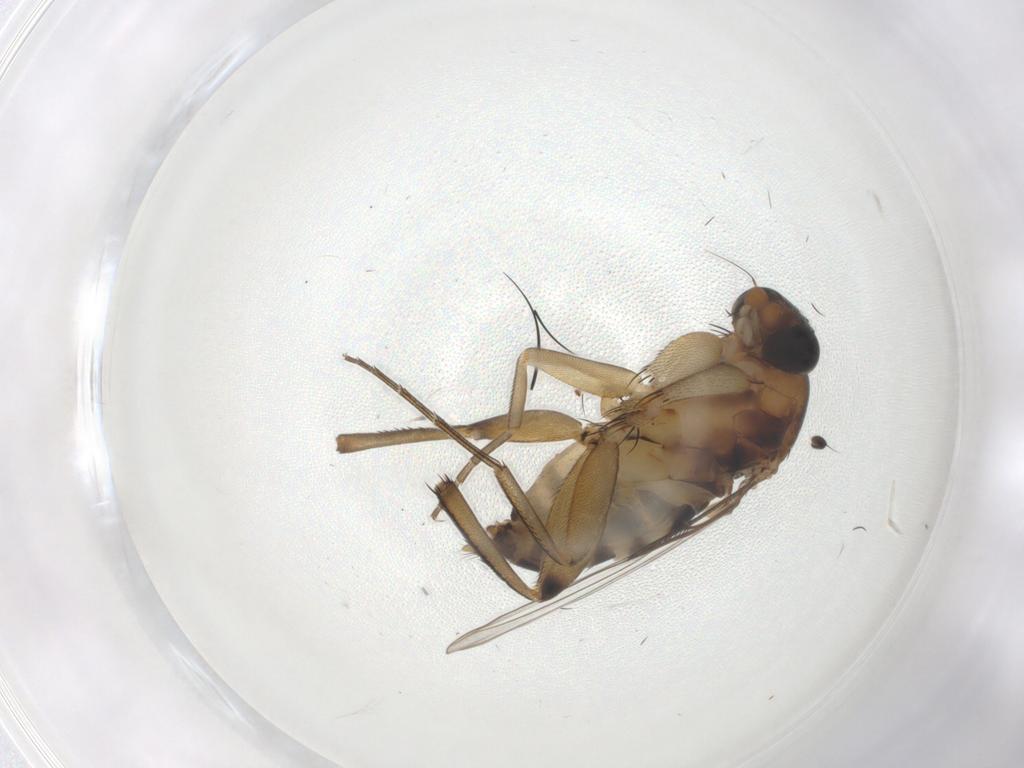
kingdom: Animalia
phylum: Arthropoda
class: Insecta
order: Diptera
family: Phoridae
